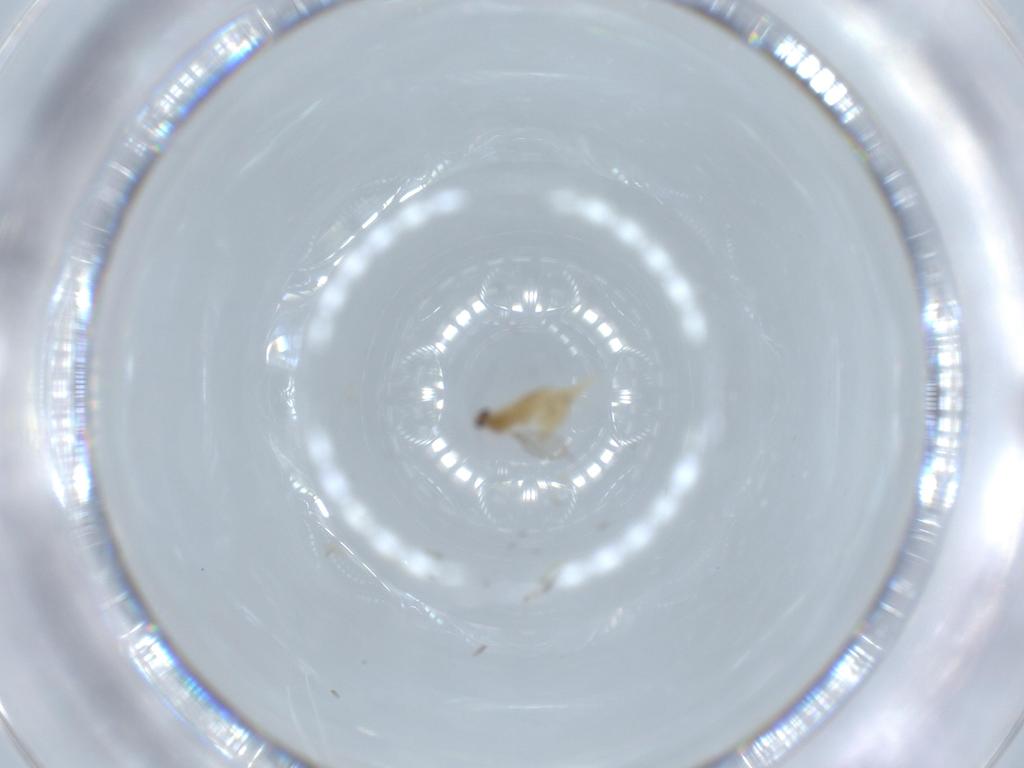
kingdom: Animalia
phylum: Arthropoda
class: Insecta
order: Diptera
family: Cecidomyiidae
